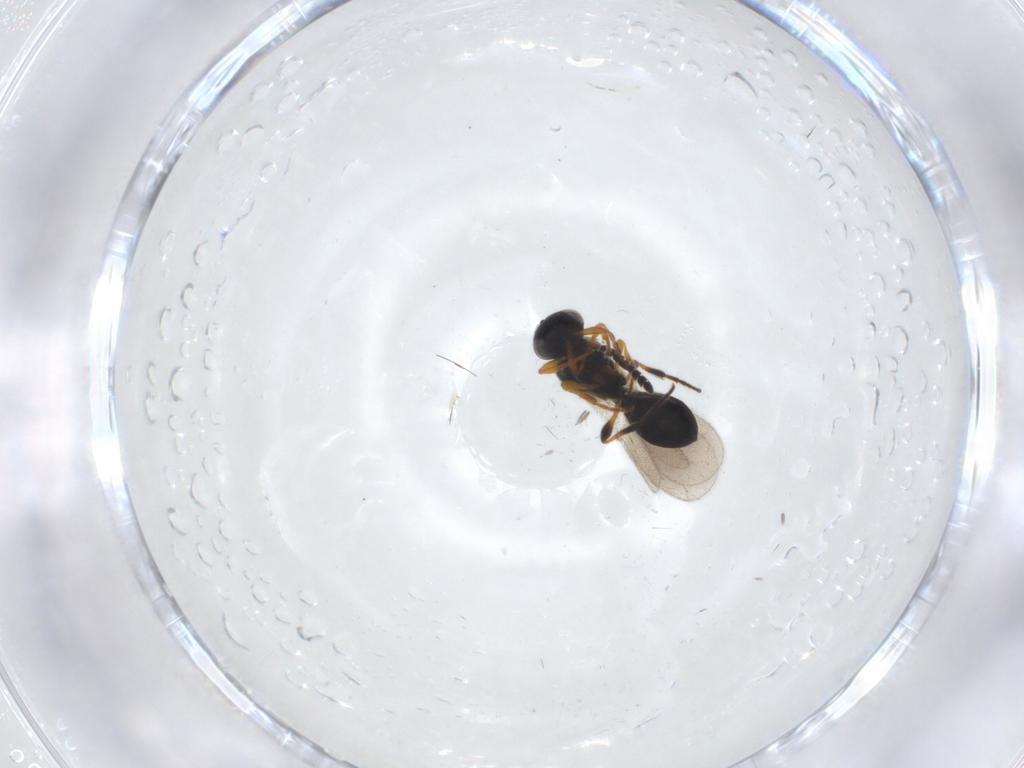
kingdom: Animalia
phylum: Arthropoda
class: Insecta
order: Hymenoptera
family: Platygastridae
